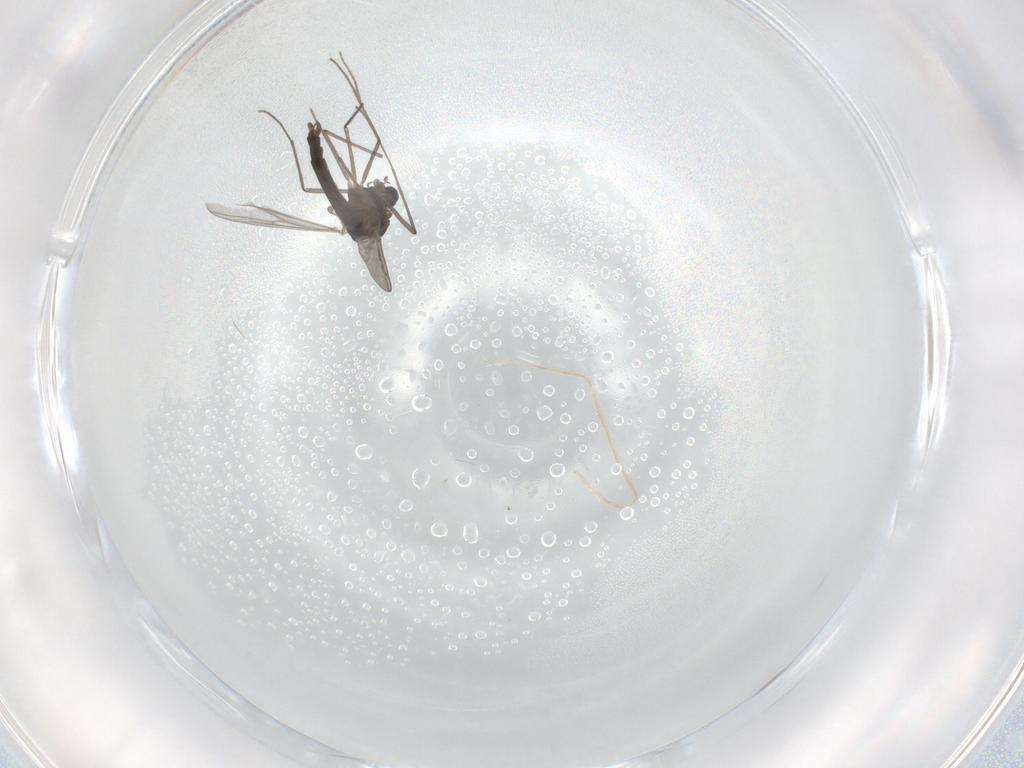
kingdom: Animalia
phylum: Arthropoda
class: Insecta
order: Diptera
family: Chironomidae
